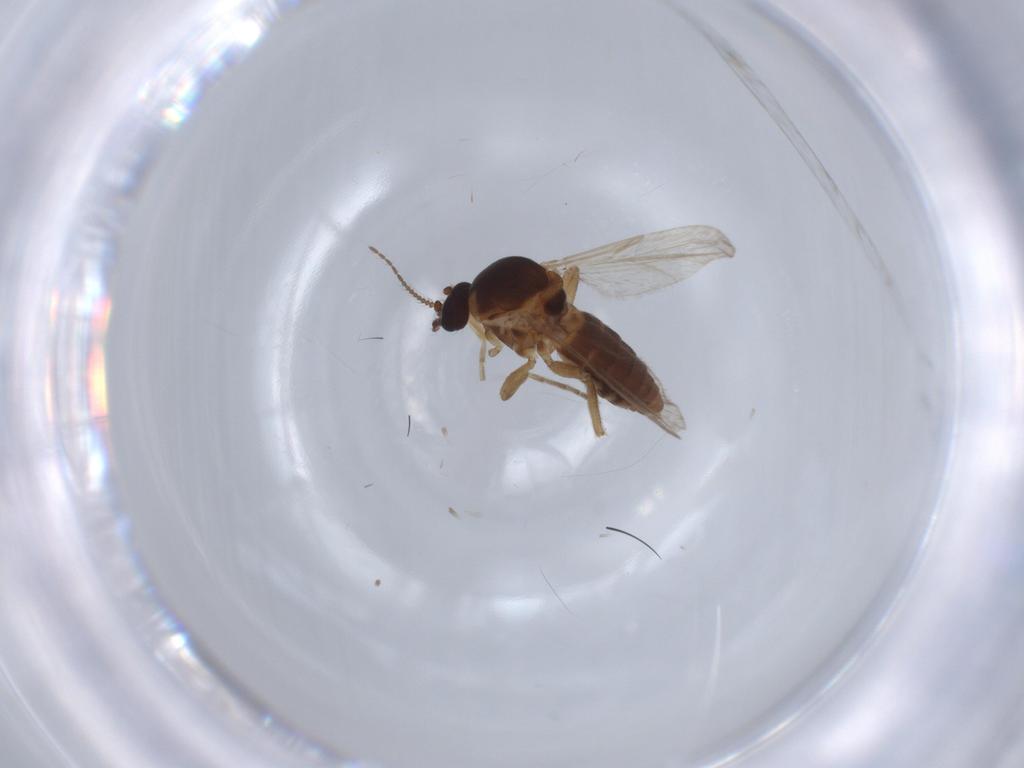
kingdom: Animalia
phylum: Arthropoda
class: Insecta
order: Diptera
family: Ceratopogonidae
